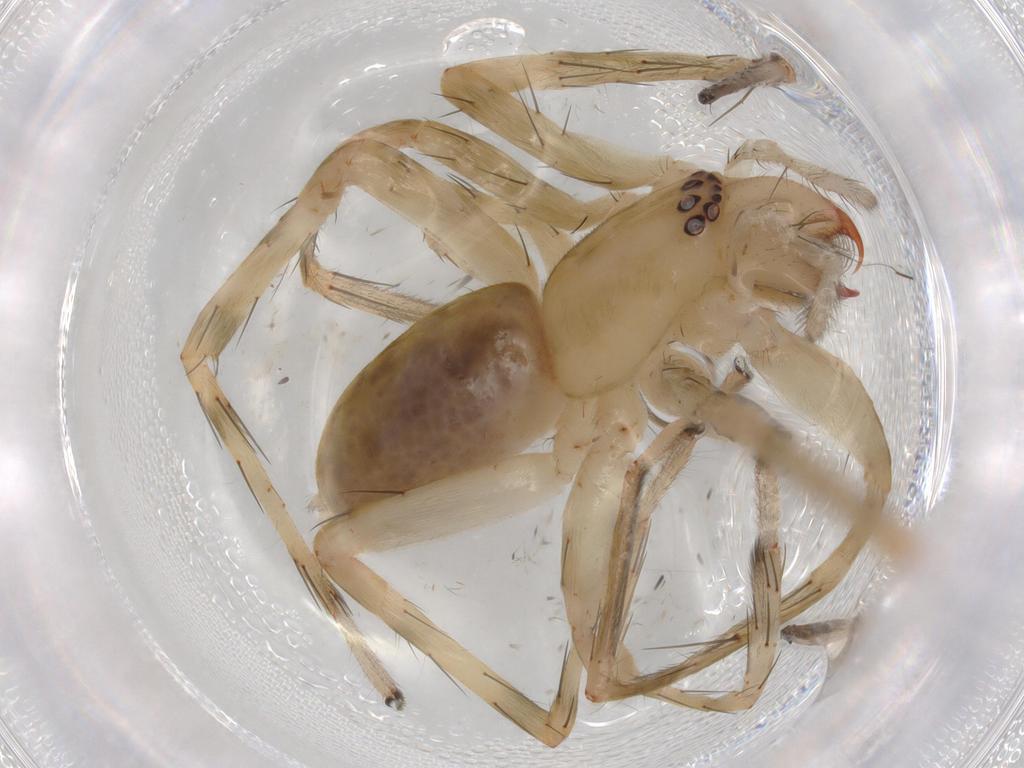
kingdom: Animalia
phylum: Arthropoda
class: Arachnida
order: Araneae
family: Anyphaenidae
